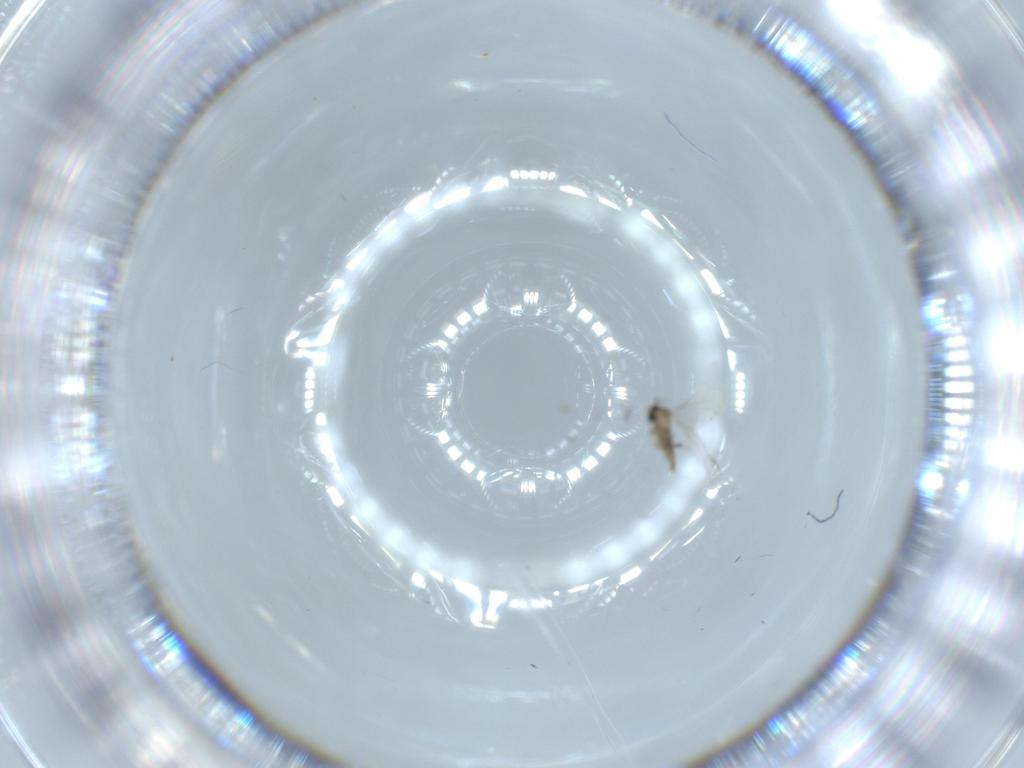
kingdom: Animalia
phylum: Arthropoda
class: Insecta
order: Diptera
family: Cecidomyiidae
